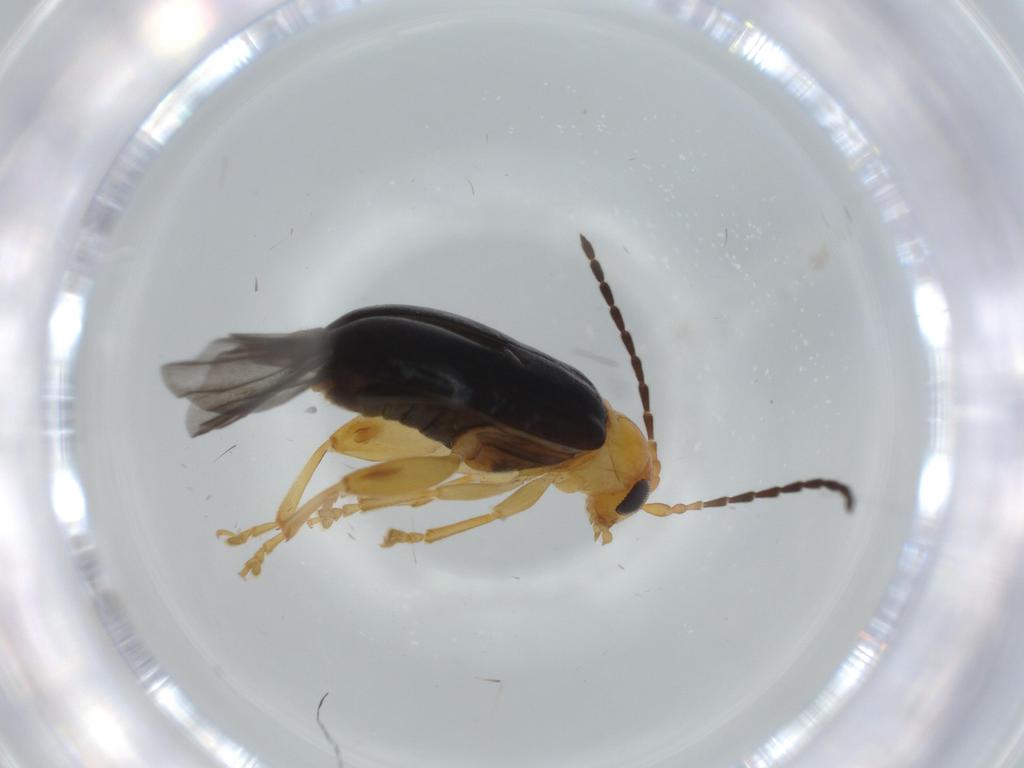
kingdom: Animalia
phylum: Arthropoda
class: Insecta
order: Coleoptera
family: Chrysomelidae
